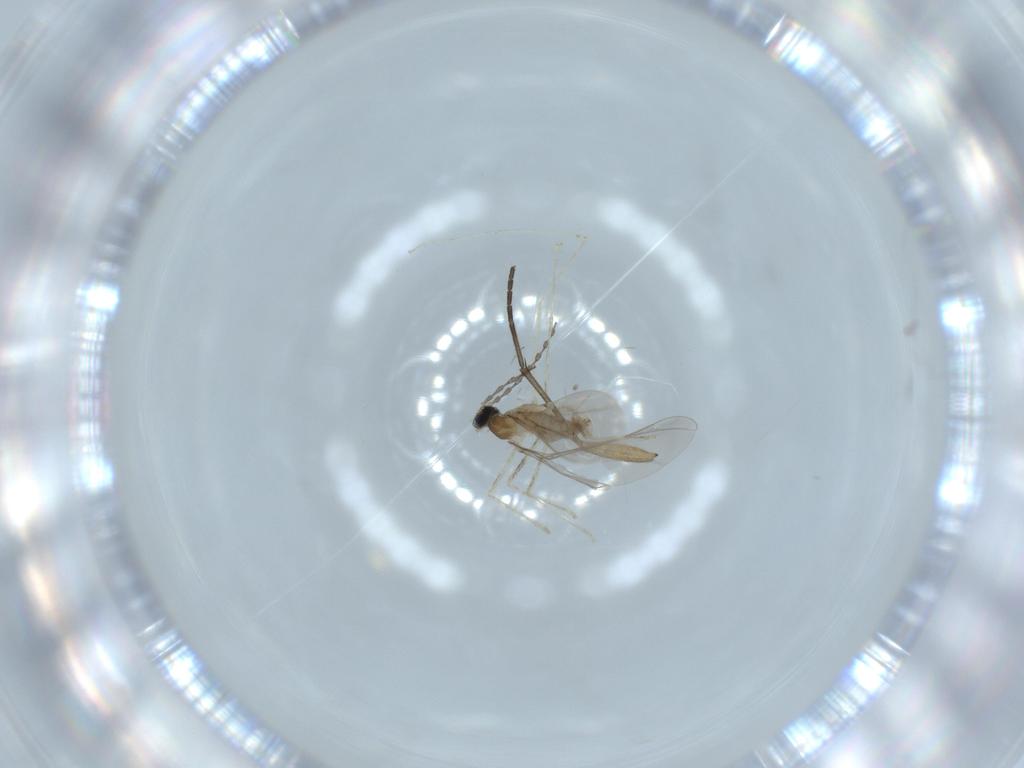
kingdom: Animalia
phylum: Arthropoda
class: Insecta
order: Diptera
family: Cecidomyiidae
